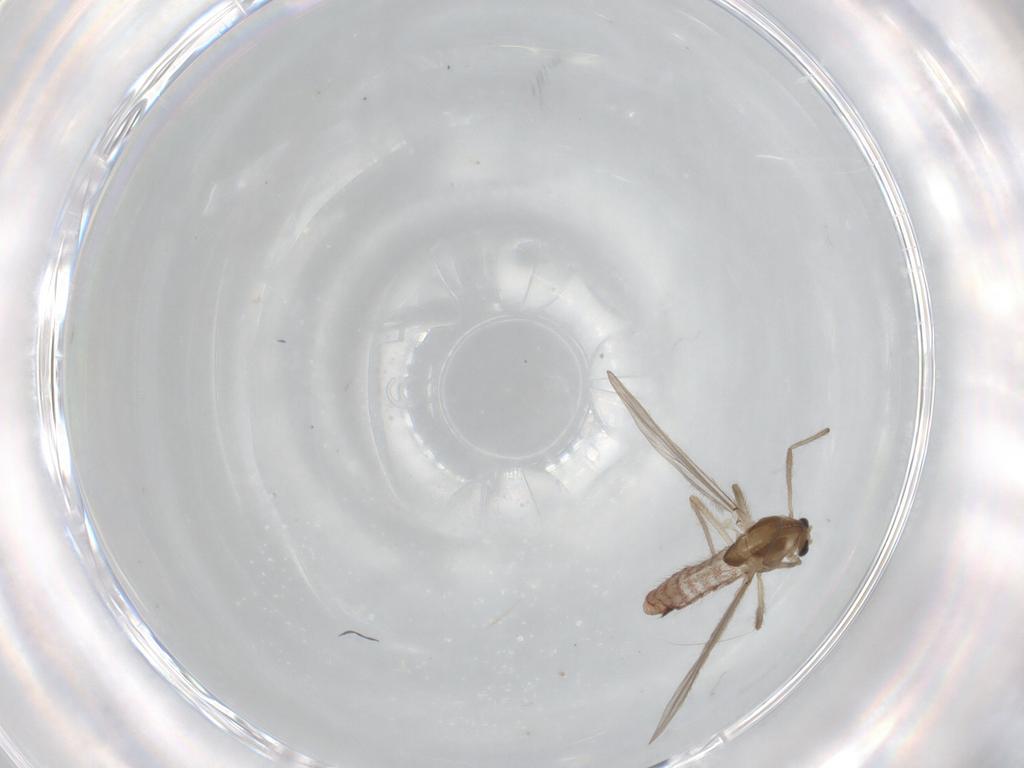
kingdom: Animalia
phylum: Arthropoda
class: Insecta
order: Diptera
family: Chironomidae
